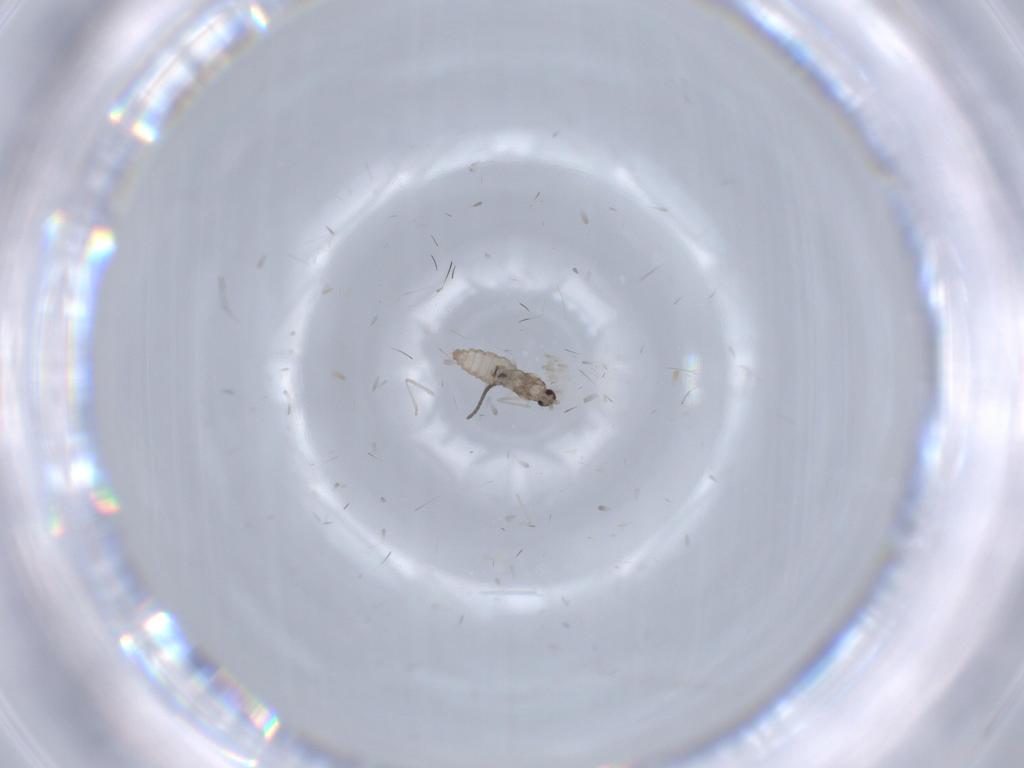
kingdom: Animalia
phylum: Arthropoda
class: Insecta
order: Diptera
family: Cecidomyiidae
